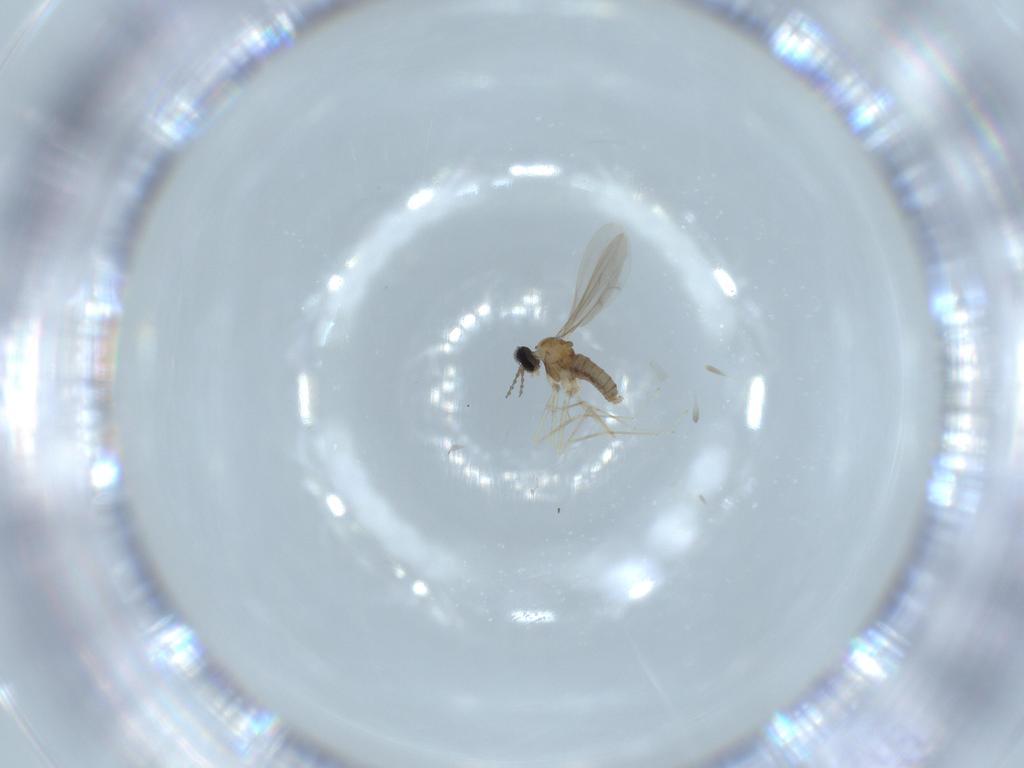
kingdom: Animalia
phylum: Arthropoda
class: Insecta
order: Diptera
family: Cecidomyiidae
